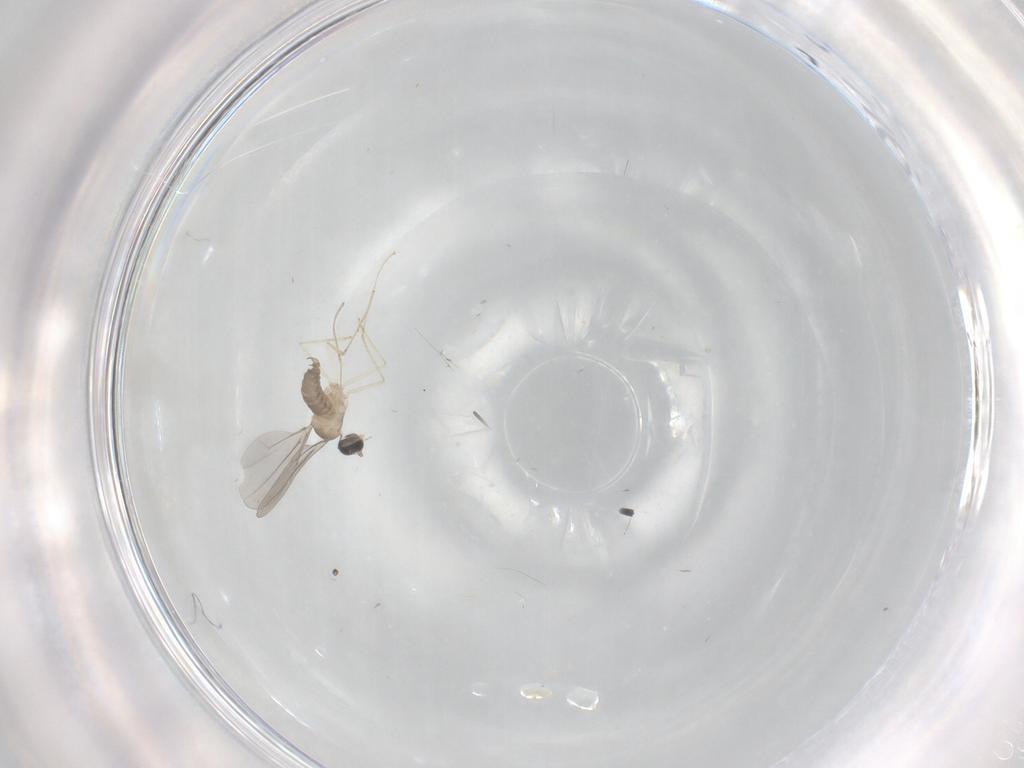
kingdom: Animalia
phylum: Arthropoda
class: Insecta
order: Diptera
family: Cecidomyiidae
